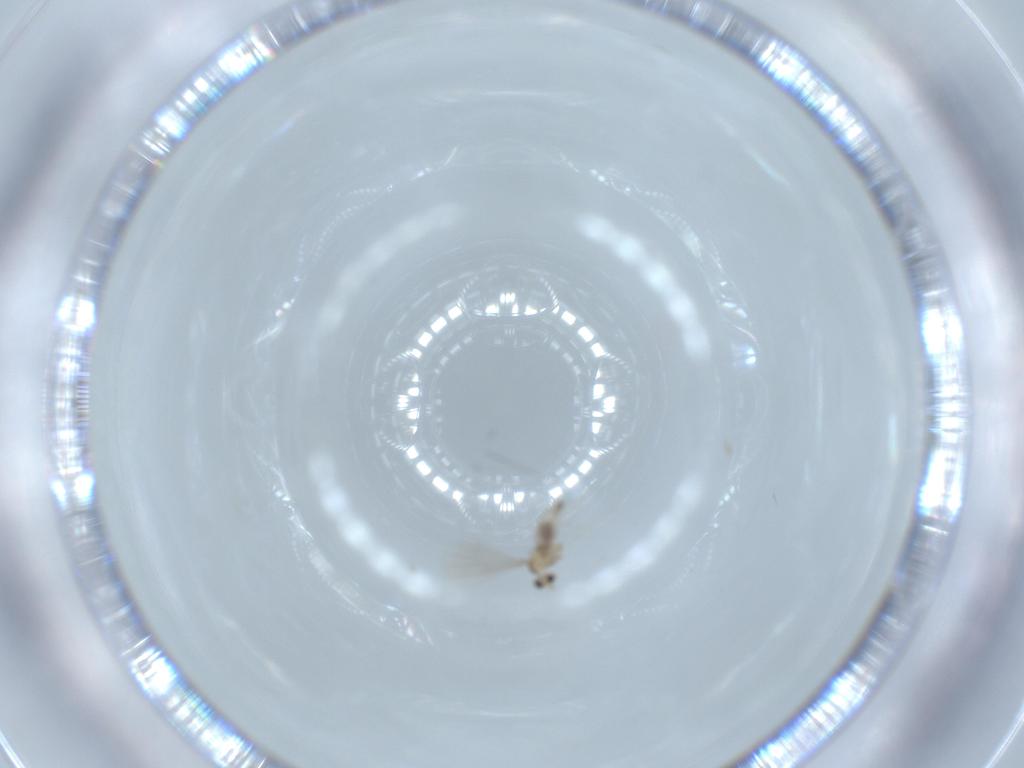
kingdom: Animalia
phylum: Arthropoda
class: Insecta
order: Diptera
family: Cecidomyiidae
